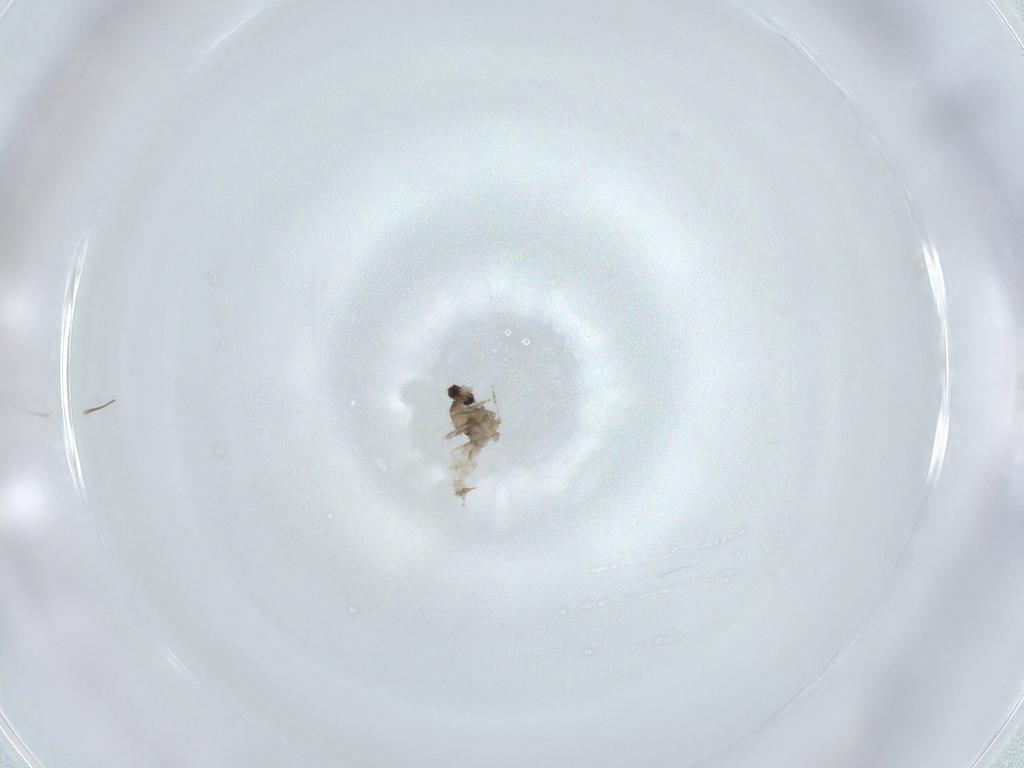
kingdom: Animalia
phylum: Arthropoda
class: Insecta
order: Diptera
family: Cecidomyiidae
